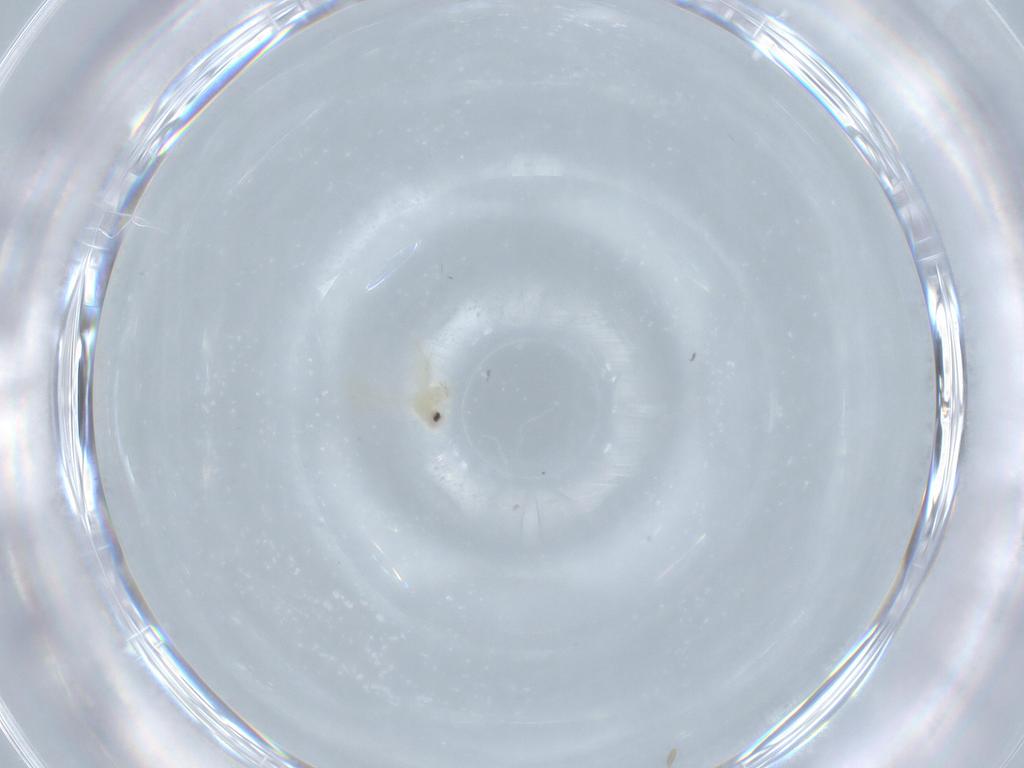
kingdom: Animalia
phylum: Arthropoda
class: Insecta
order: Hemiptera
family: Aleyrodidae
